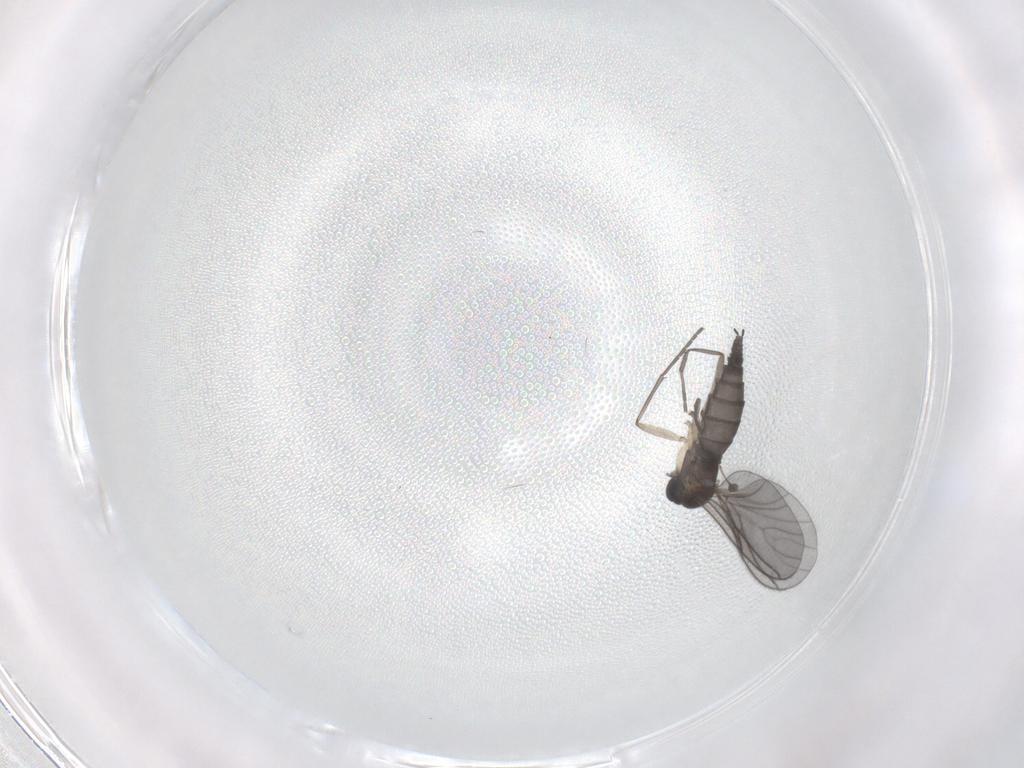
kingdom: Animalia
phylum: Arthropoda
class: Insecta
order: Diptera
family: Sciaridae
